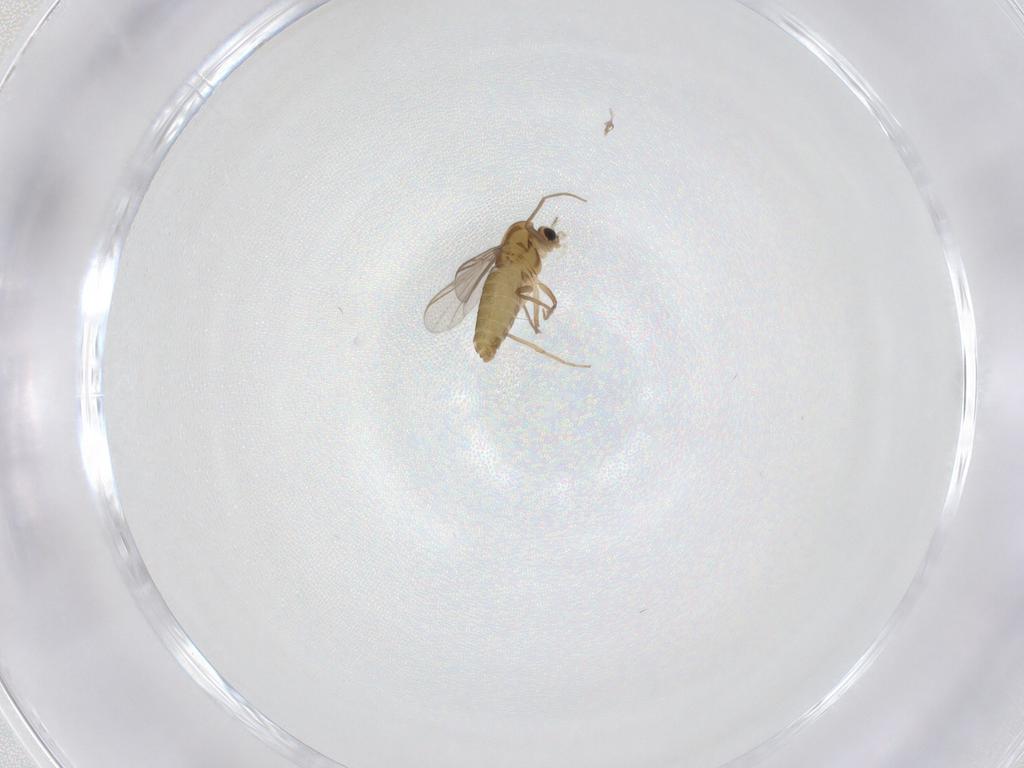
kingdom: Animalia
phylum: Arthropoda
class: Insecta
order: Diptera
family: Chironomidae
